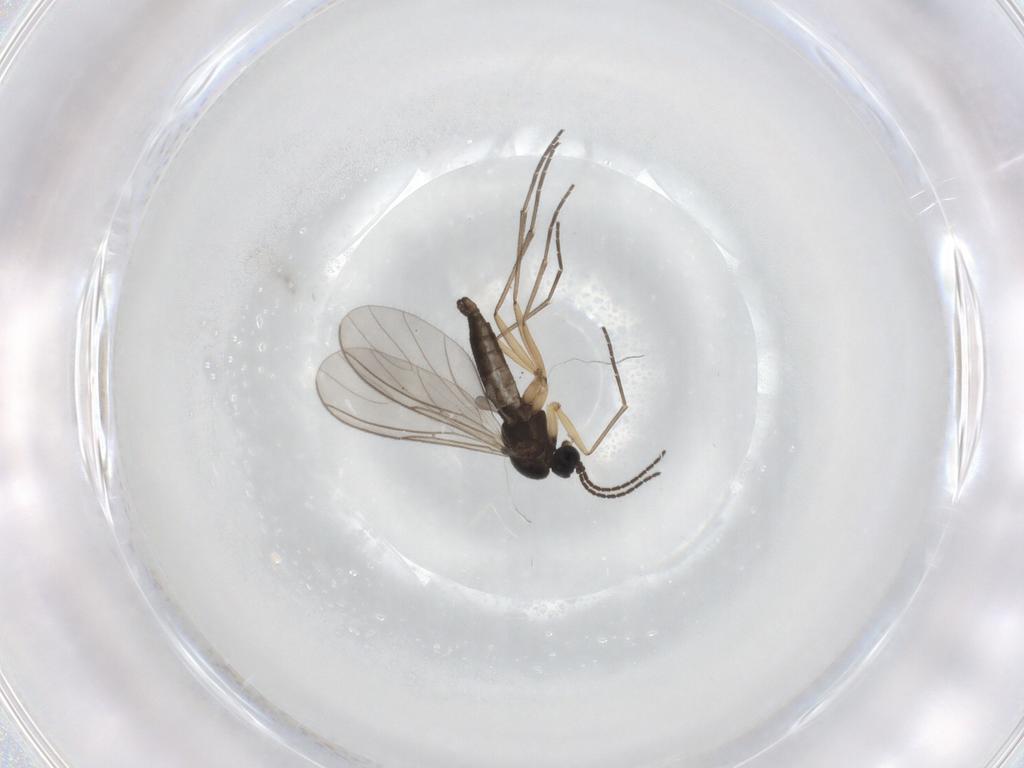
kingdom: Animalia
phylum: Arthropoda
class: Insecta
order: Diptera
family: Sciaridae
